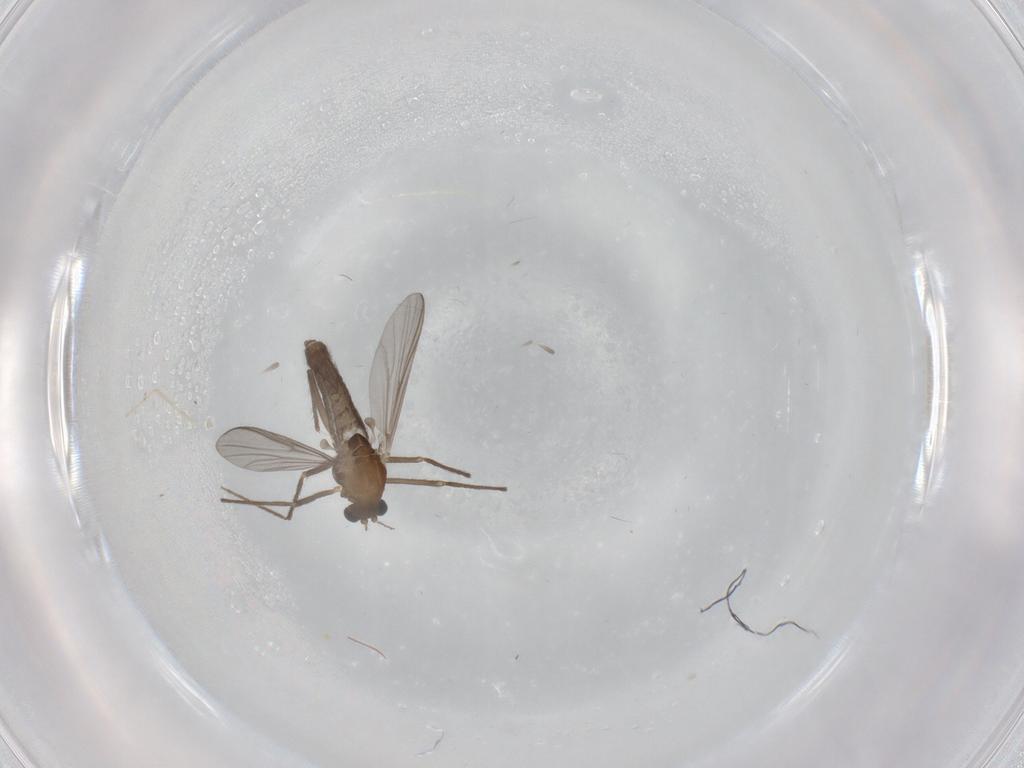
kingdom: Animalia
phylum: Arthropoda
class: Insecta
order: Diptera
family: Chironomidae
